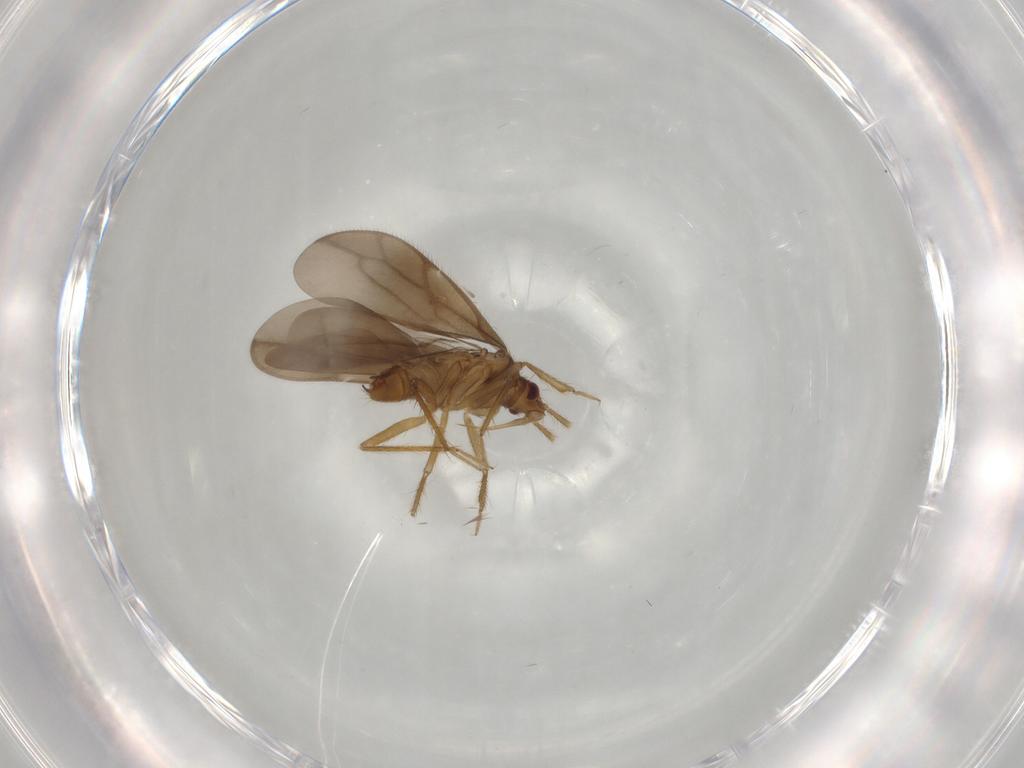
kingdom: Animalia
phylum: Arthropoda
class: Insecta
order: Hemiptera
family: Ceratocombidae
